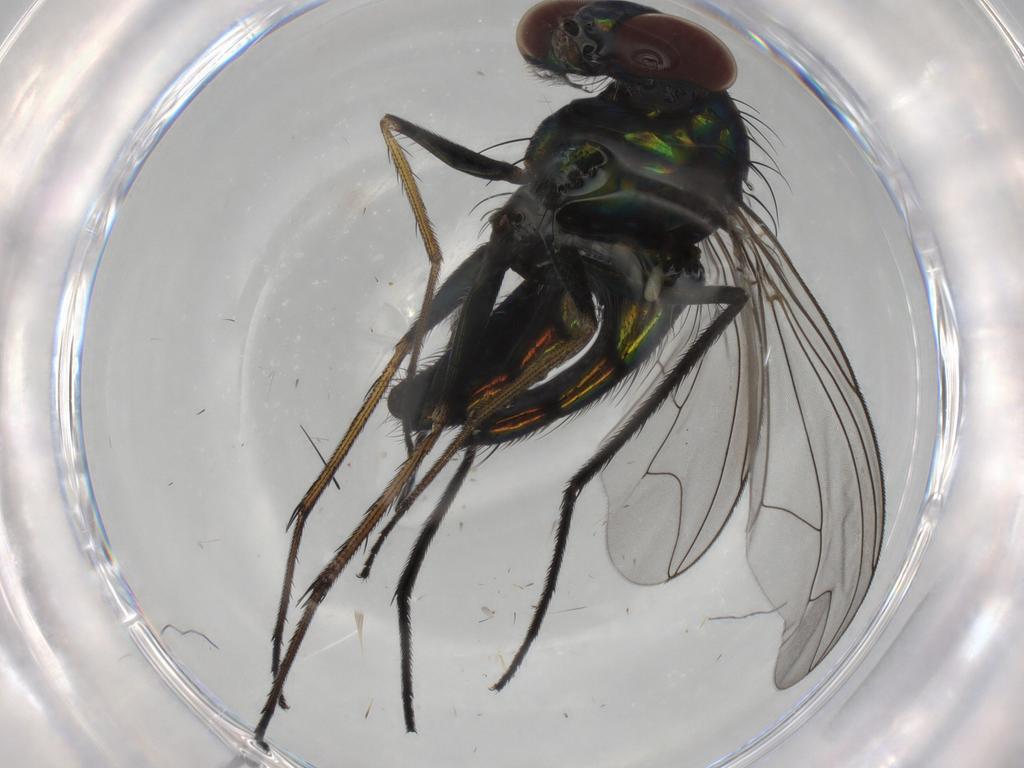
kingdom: Animalia
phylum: Arthropoda
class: Insecta
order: Diptera
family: Dolichopodidae
